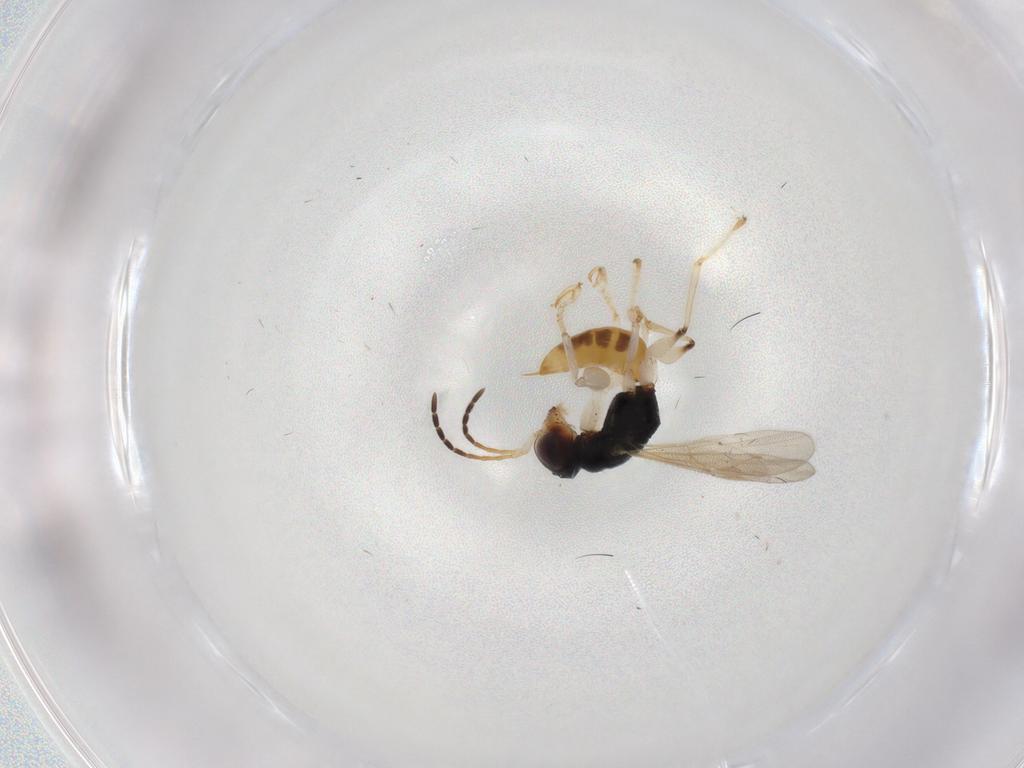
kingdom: Animalia
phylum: Arthropoda
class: Insecta
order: Hymenoptera
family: Dryinidae
